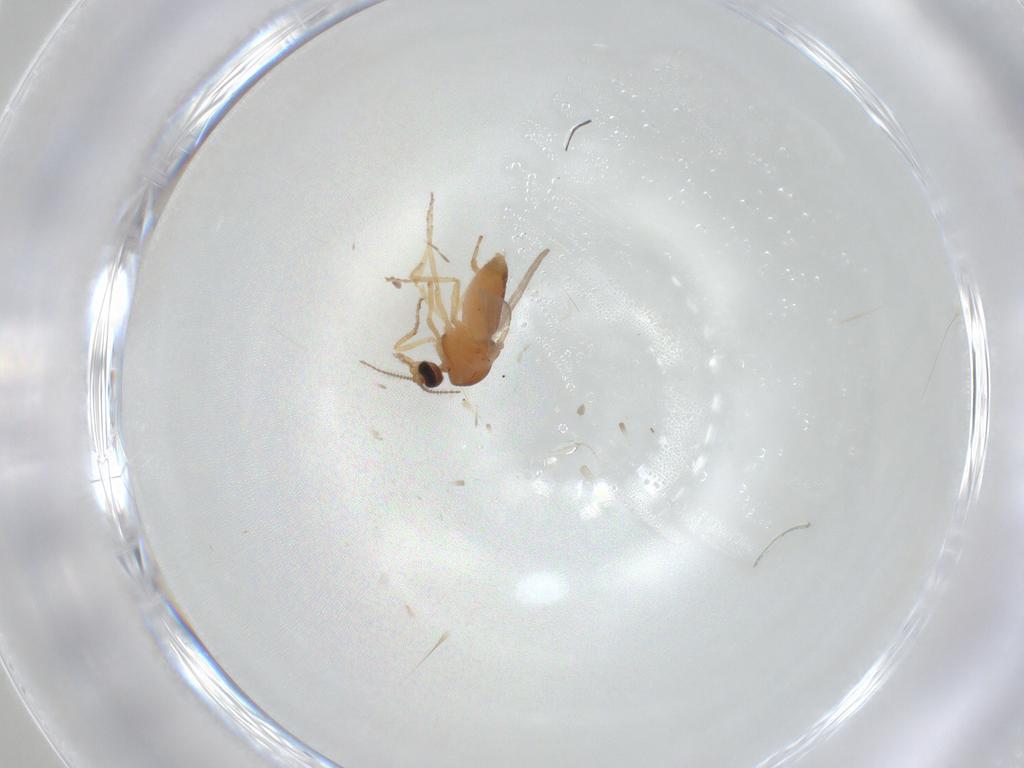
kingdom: Animalia
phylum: Arthropoda
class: Insecta
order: Diptera
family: Ceratopogonidae
